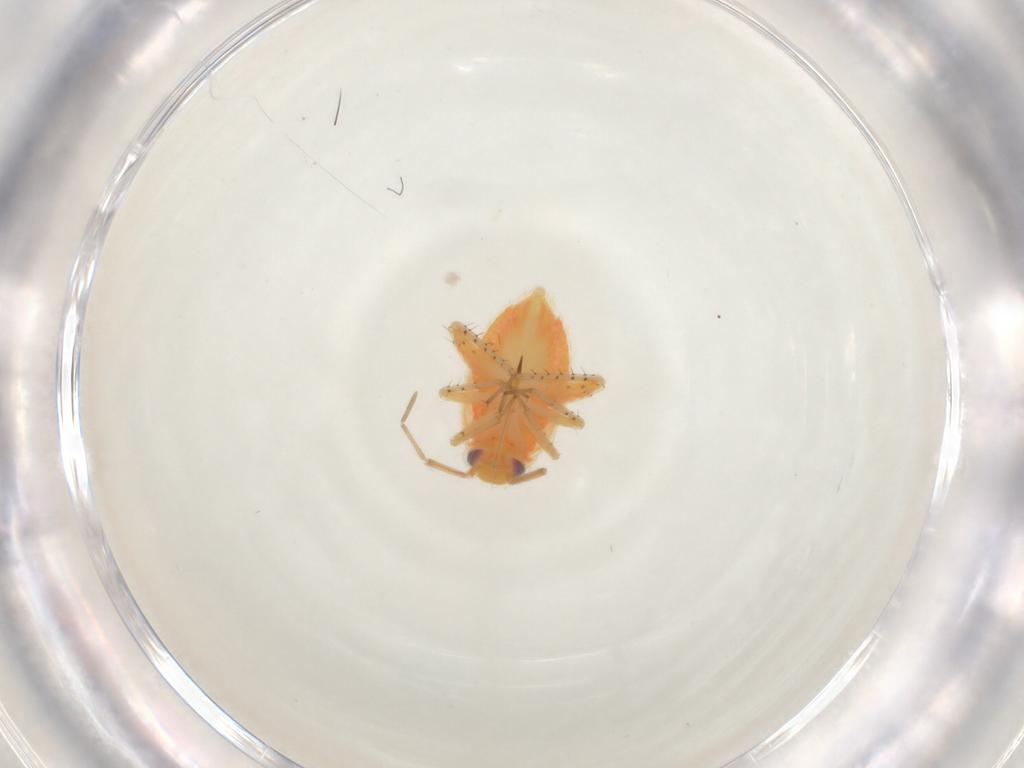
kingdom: Animalia
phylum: Arthropoda
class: Insecta
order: Hemiptera
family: Miridae
